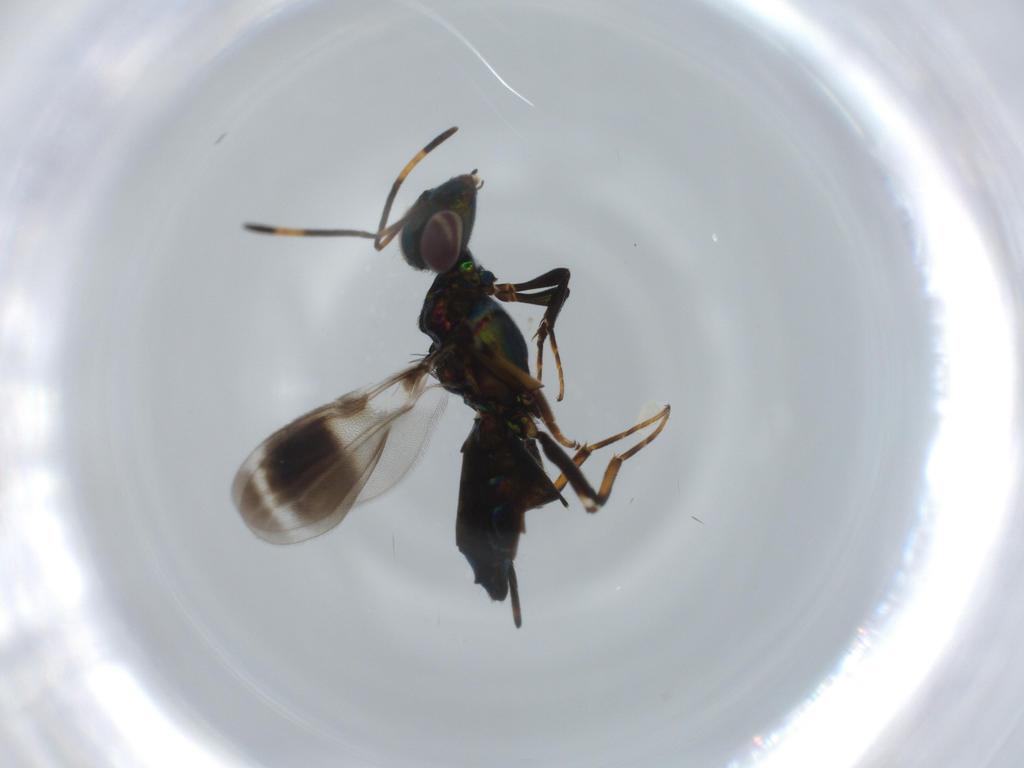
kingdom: Animalia
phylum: Arthropoda
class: Insecta
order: Hymenoptera
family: Eupelmidae
